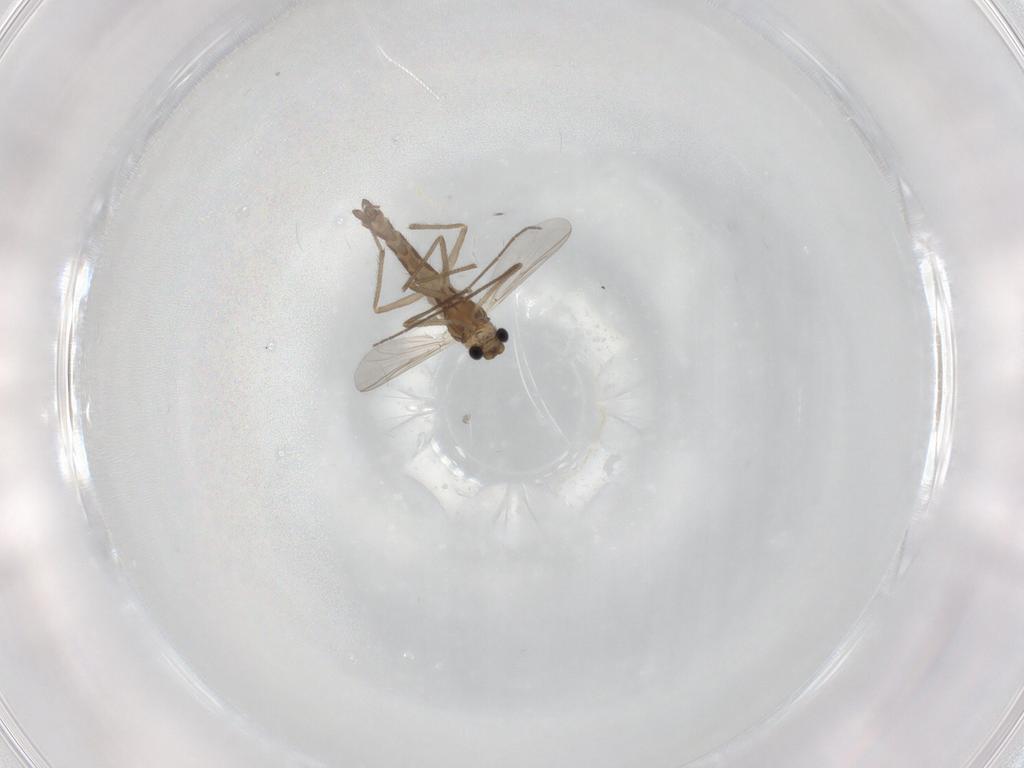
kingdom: Animalia
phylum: Arthropoda
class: Insecta
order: Diptera
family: Chironomidae
